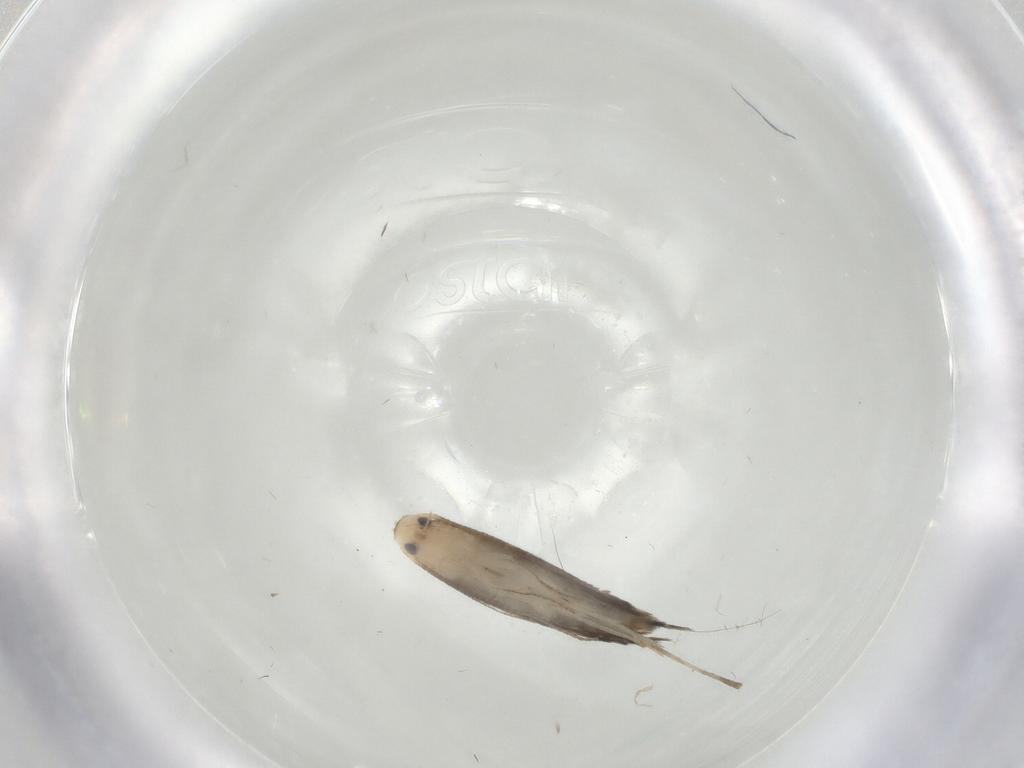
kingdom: Animalia
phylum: Arthropoda
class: Insecta
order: Lepidoptera
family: Gracillariidae
